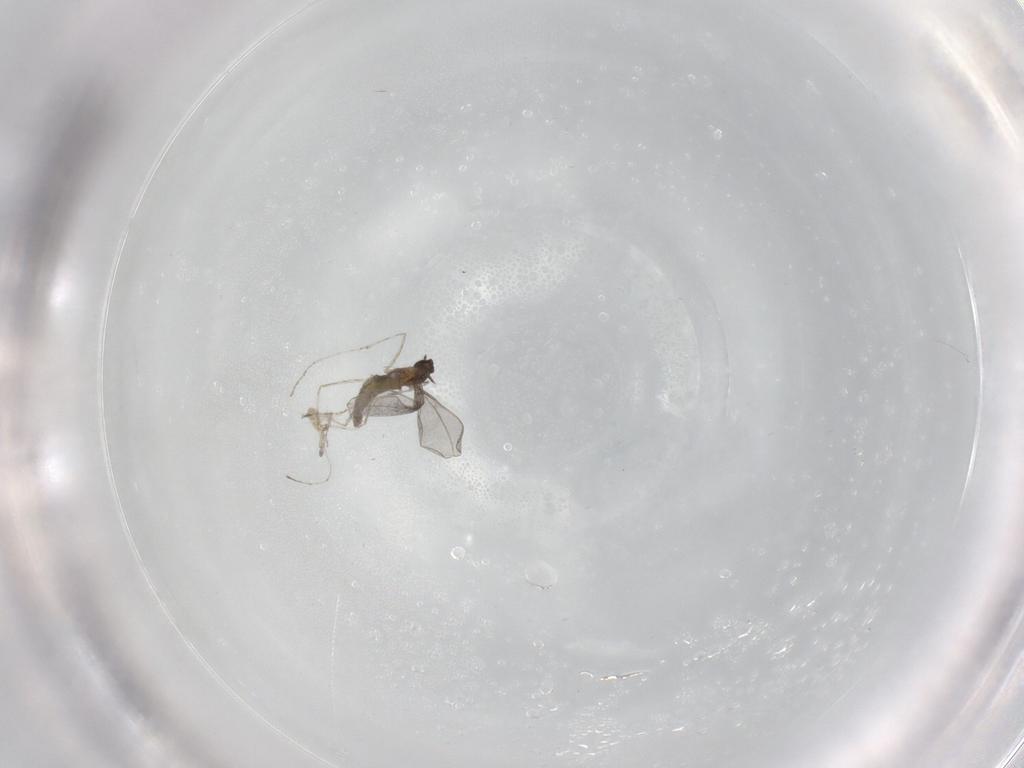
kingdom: Animalia
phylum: Arthropoda
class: Insecta
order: Diptera
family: Cecidomyiidae
